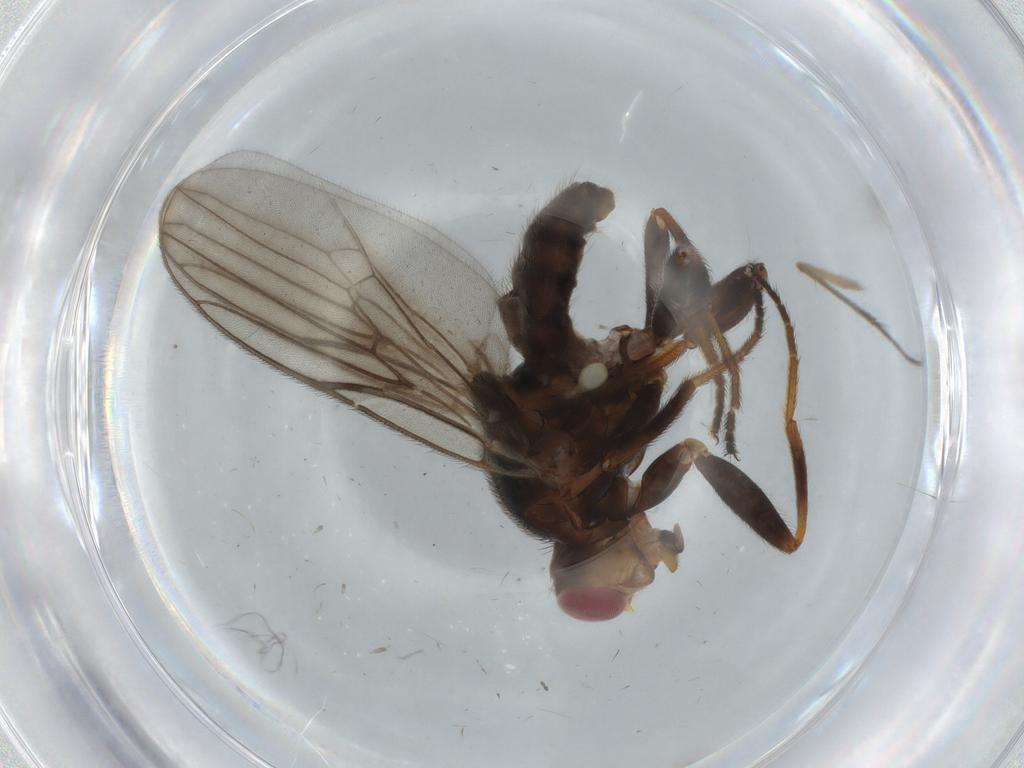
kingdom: Animalia
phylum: Arthropoda
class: Insecta
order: Diptera
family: Chloropidae
